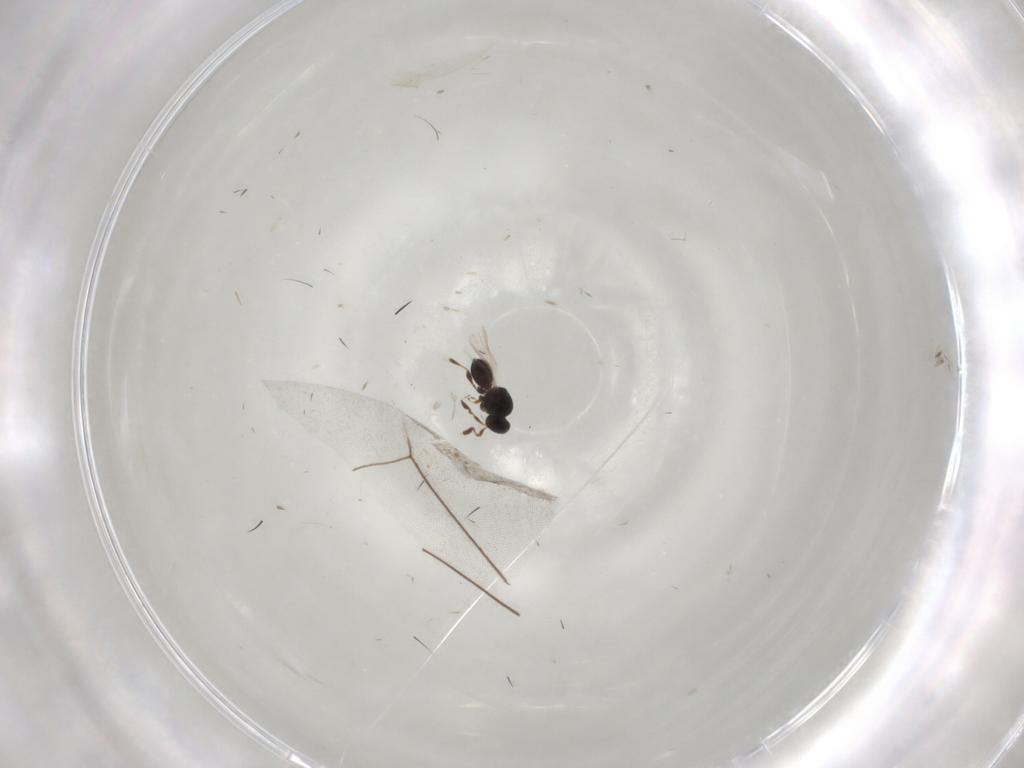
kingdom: Animalia
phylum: Arthropoda
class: Insecta
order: Hymenoptera
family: Platygastridae
